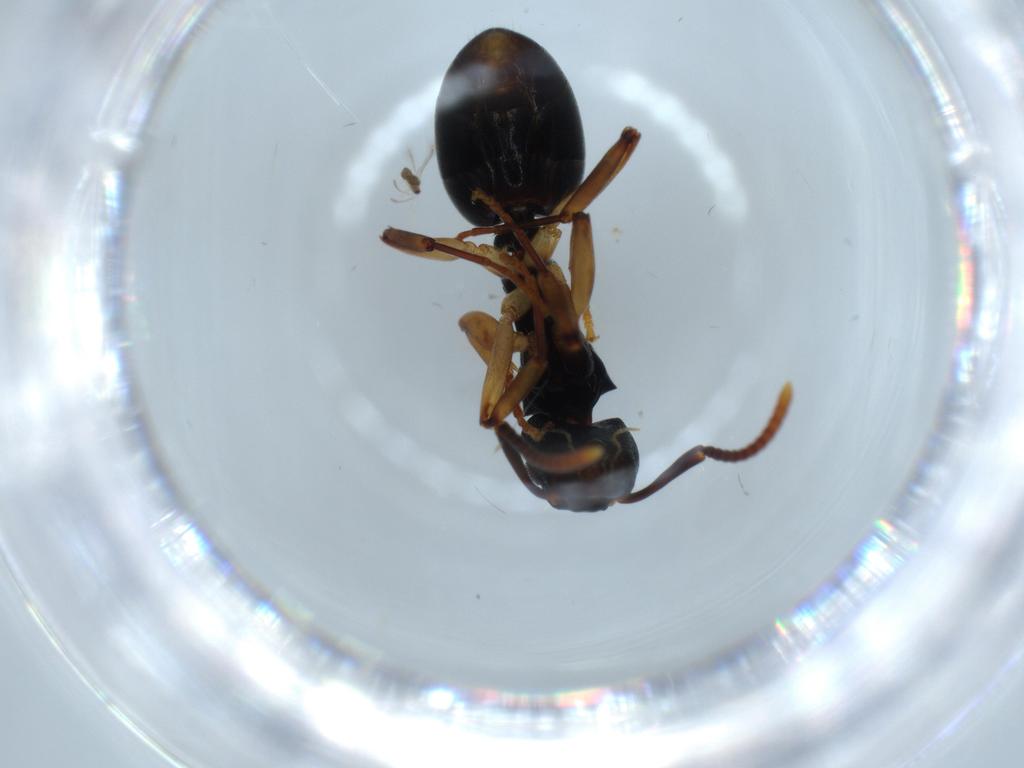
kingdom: Animalia
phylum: Arthropoda
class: Insecta
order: Hymenoptera
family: Formicidae
